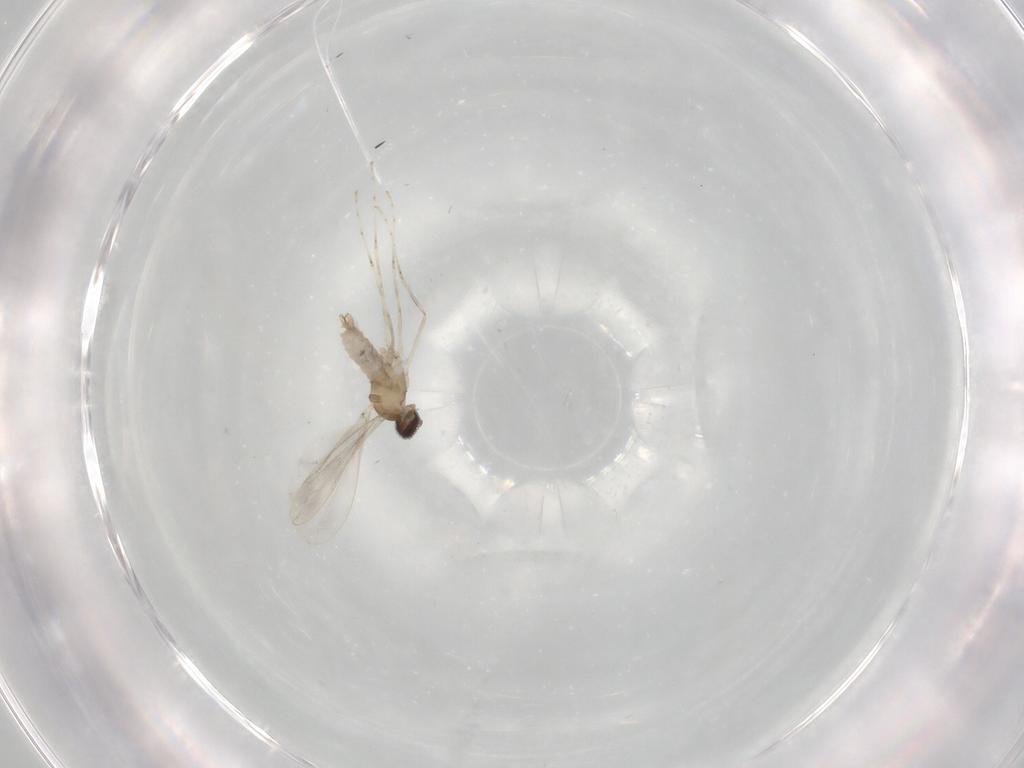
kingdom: Animalia
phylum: Arthropoda
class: Insecta
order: Diptera
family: Cecidomyiidae
